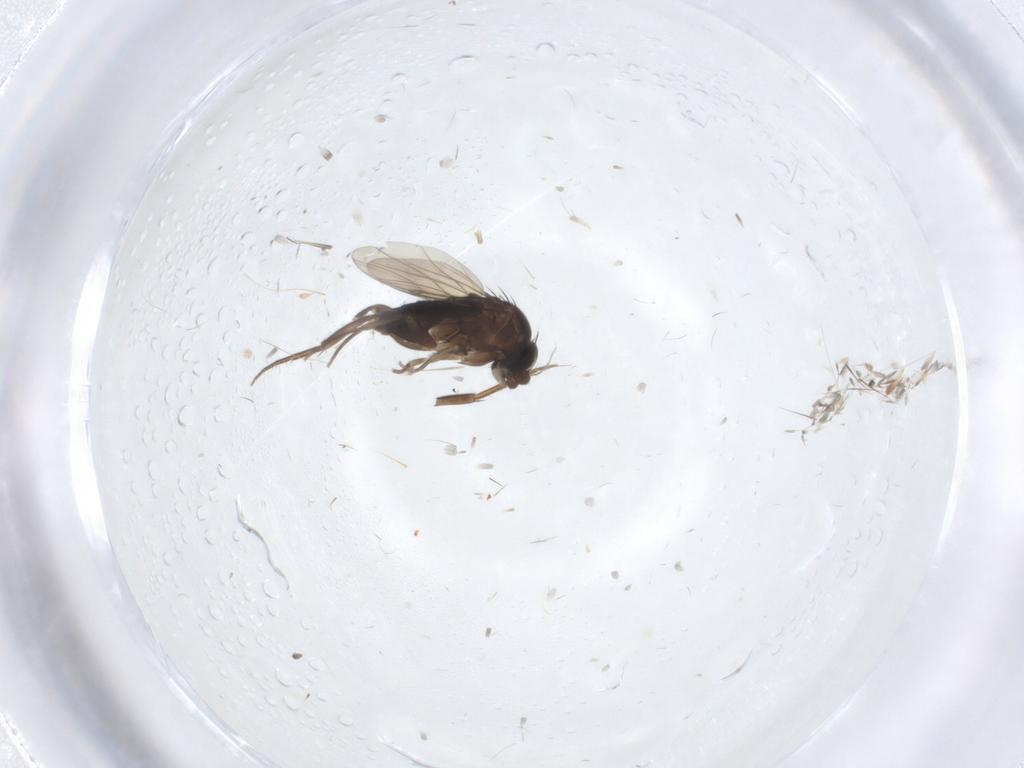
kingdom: Animalia
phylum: Arthropoda
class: Insecta
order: Diptera
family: Phoridae
